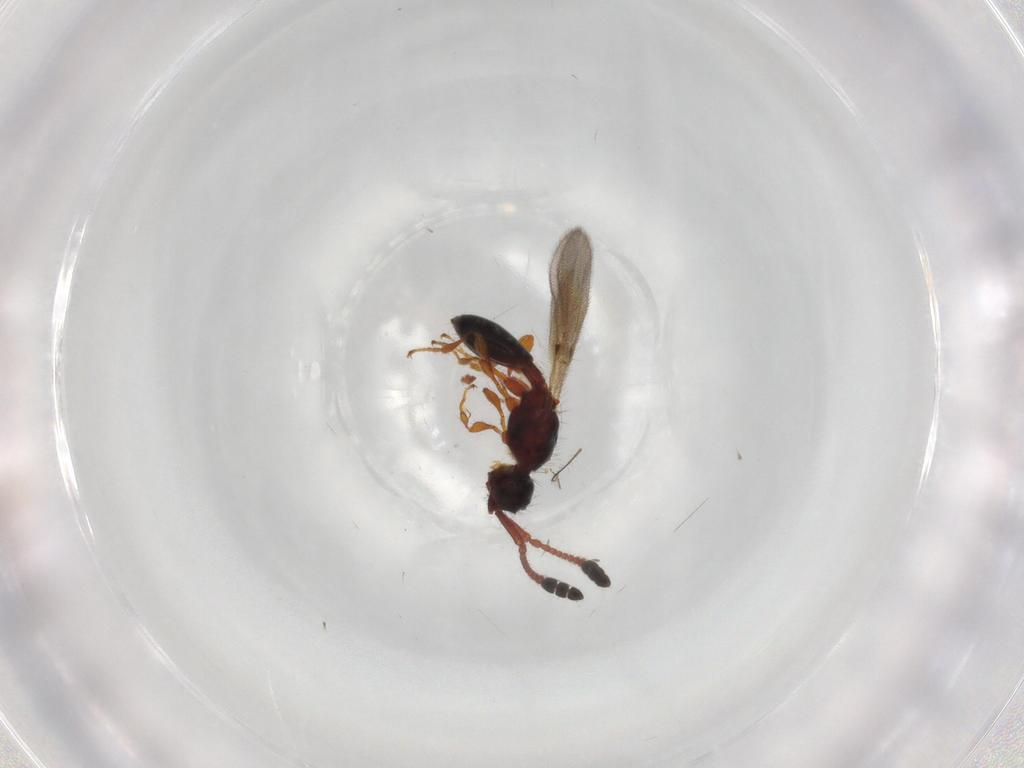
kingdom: Animalia
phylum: Arthropoda
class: Insecta
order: Hymenoptera
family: Diapriidae
